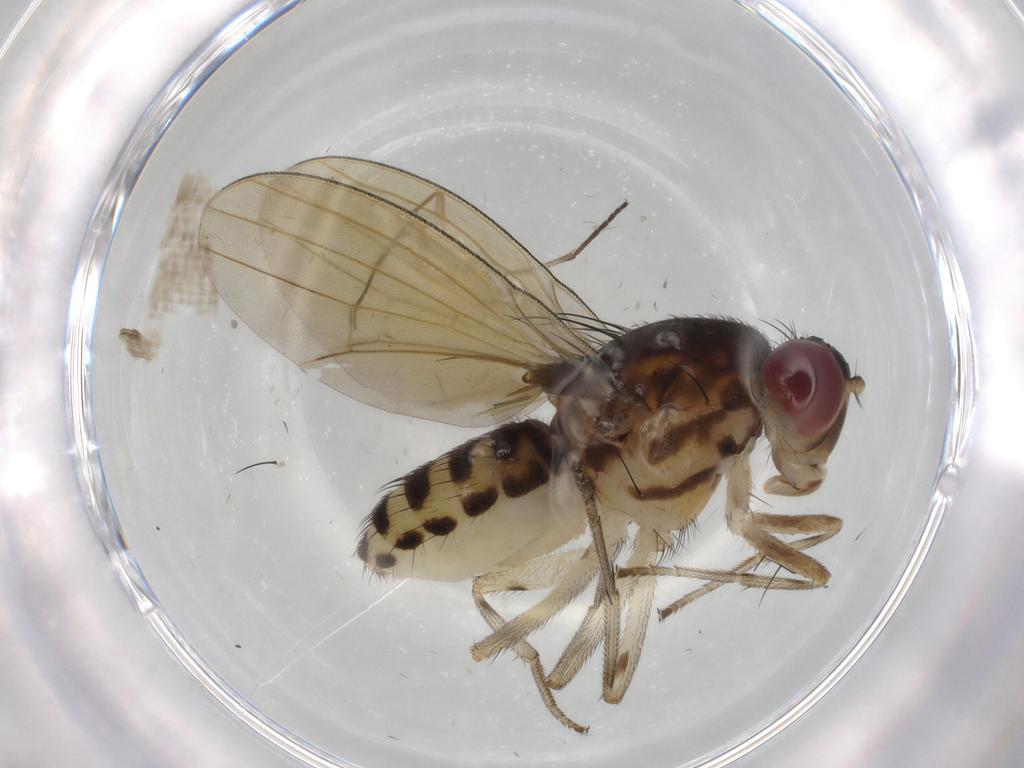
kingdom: Animalia
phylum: Arthropoda
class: Insecta
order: Diptera
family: Sciaridae
